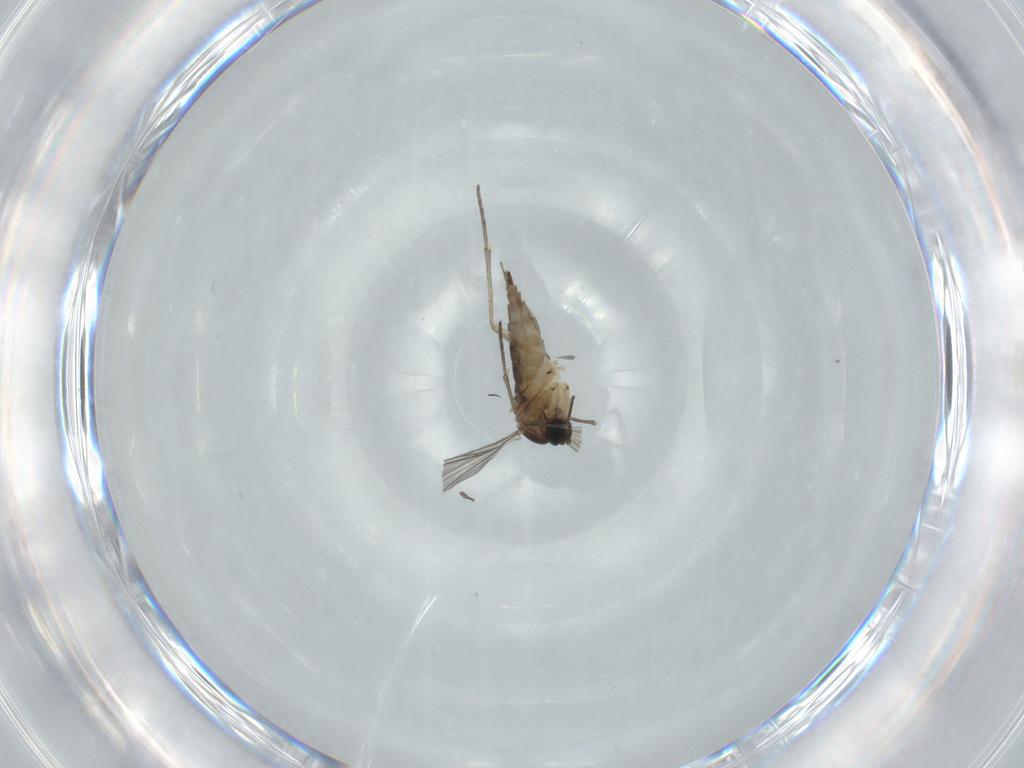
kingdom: Animalia
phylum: Arthropoda
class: Insecta
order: Diptera
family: Sciaridae
